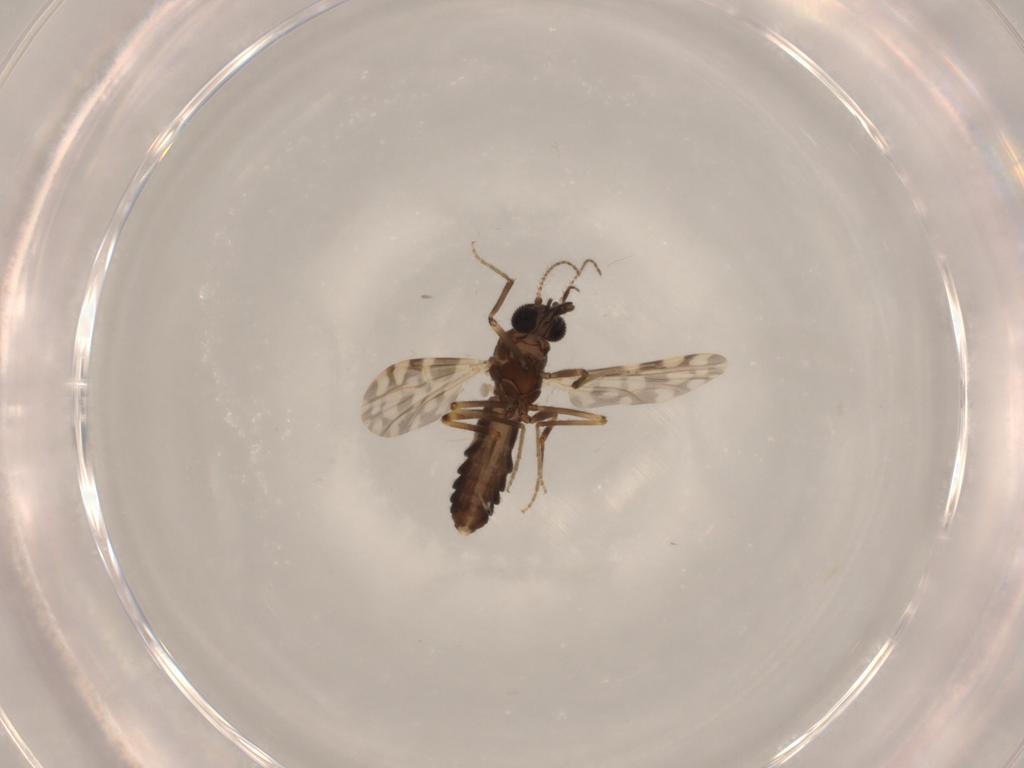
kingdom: Animalia
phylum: Arthropoda
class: Insecta
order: Diptera
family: Ceratopogonidae
